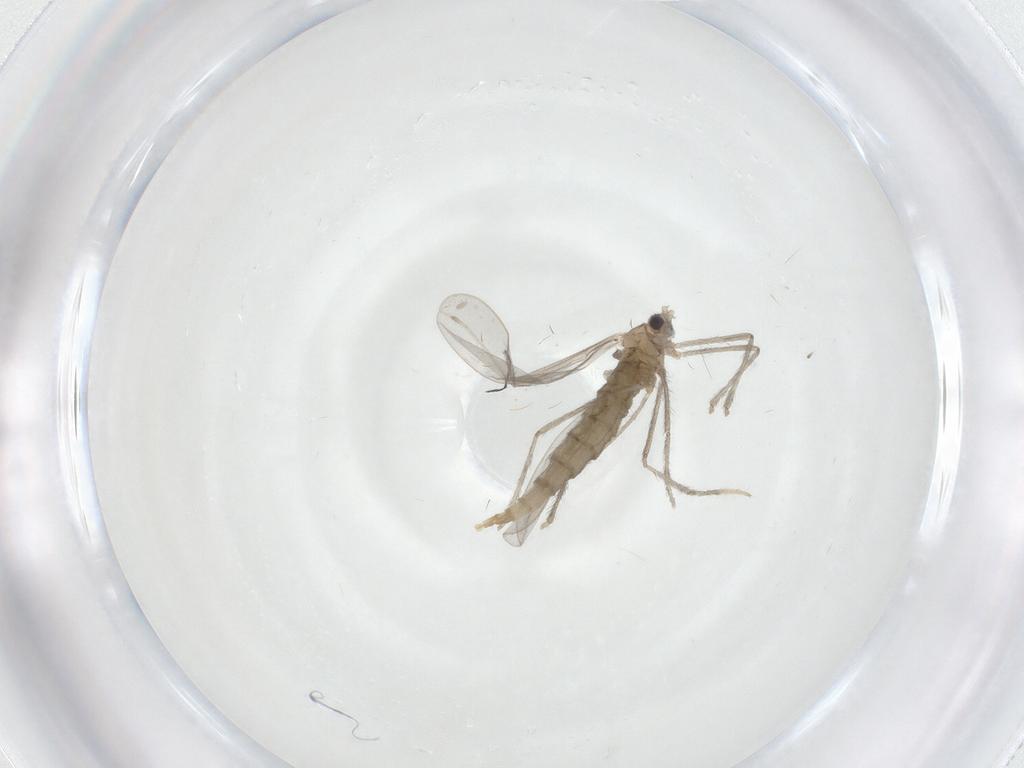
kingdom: Animalia
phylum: Arthropoda
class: Insecta
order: Diptera
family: Cecidomyiidae
